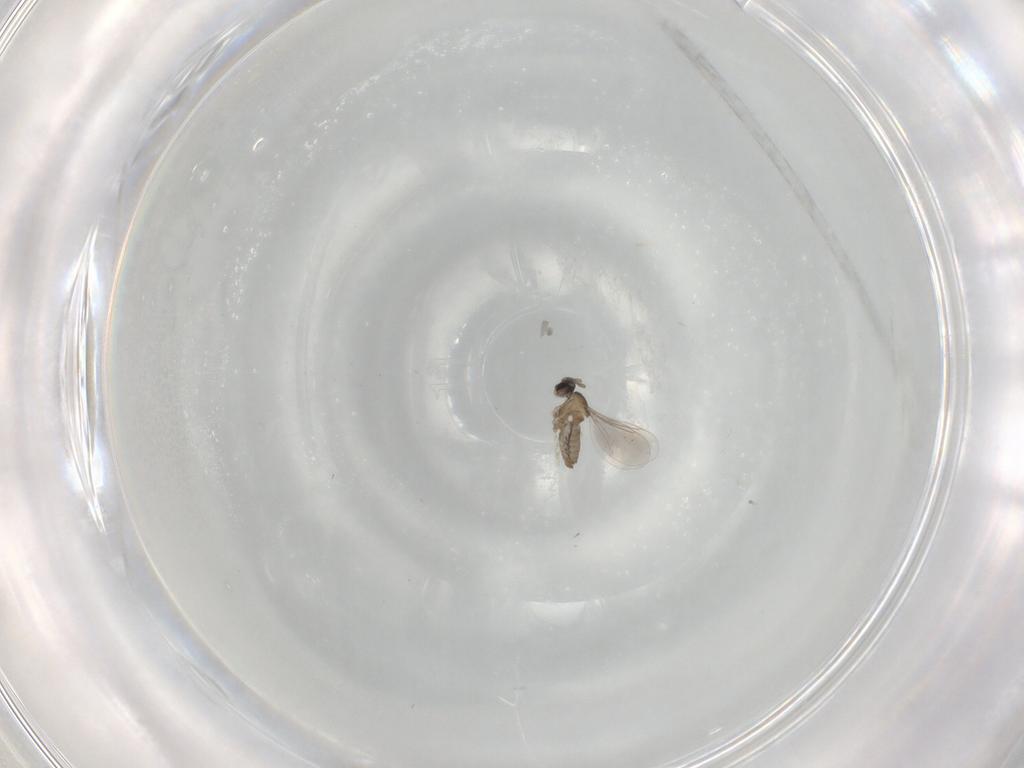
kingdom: Animalia
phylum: Arthropoda
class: Insecta
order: Diptera
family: Cecidomyiidae
